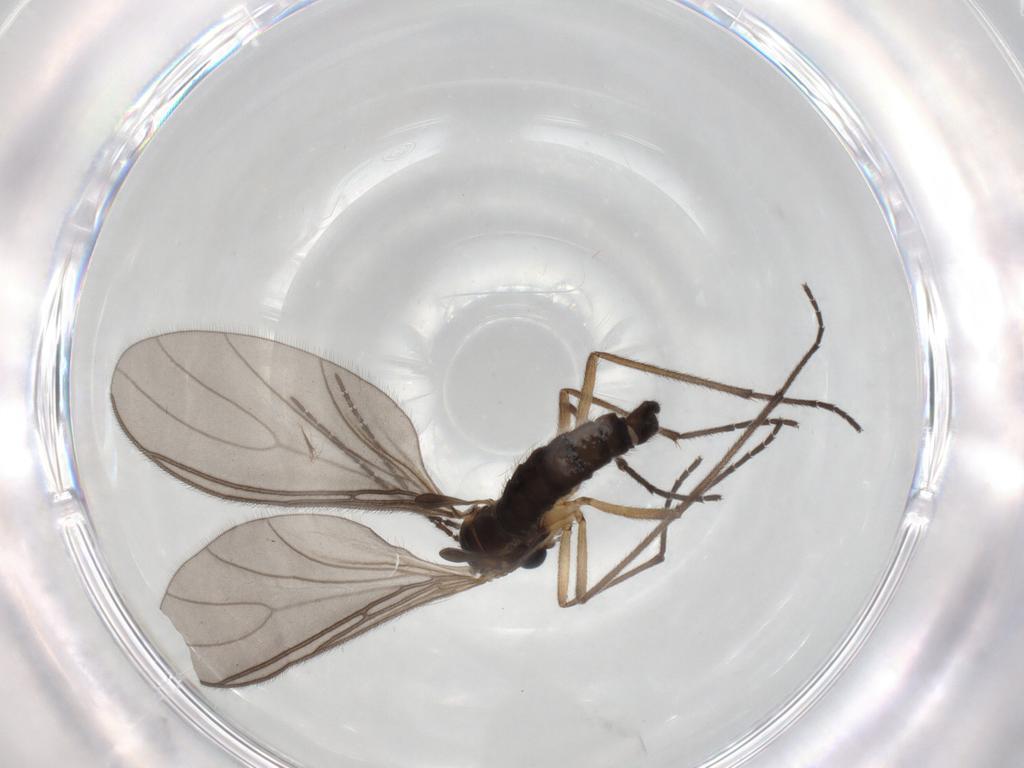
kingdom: Animalia
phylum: Arthropoda
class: Insecta
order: Diptera
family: Sciaridae
